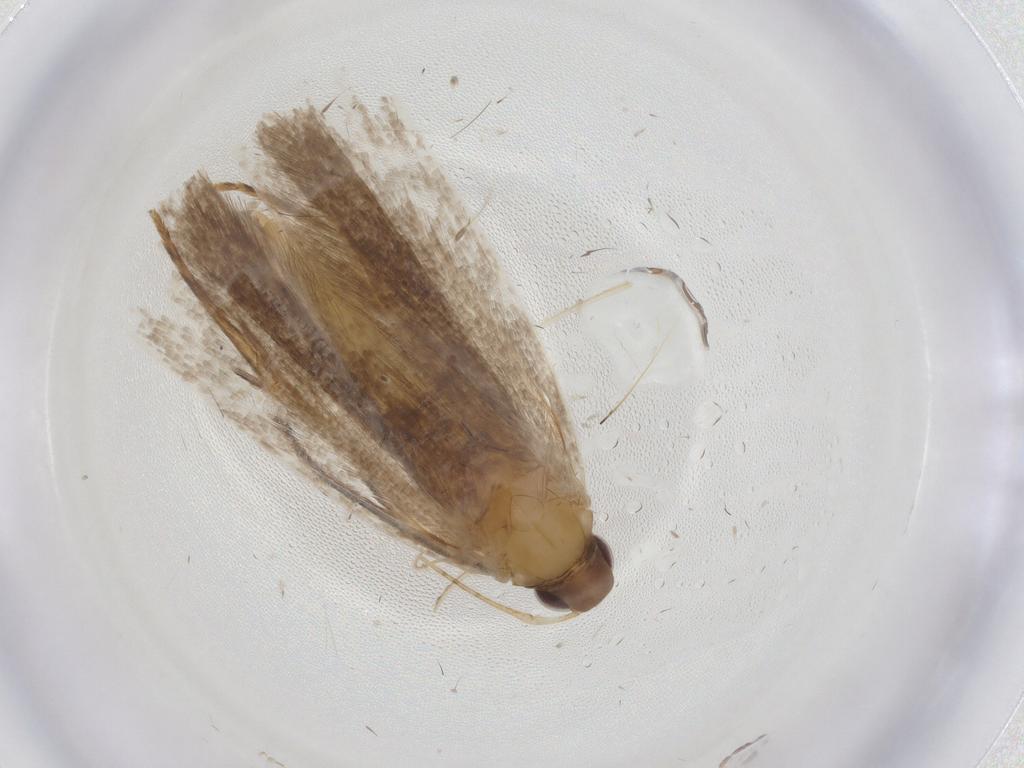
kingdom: Animalia
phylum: Arthropoda
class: Insecta
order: Lepidoptera
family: Crambidae
